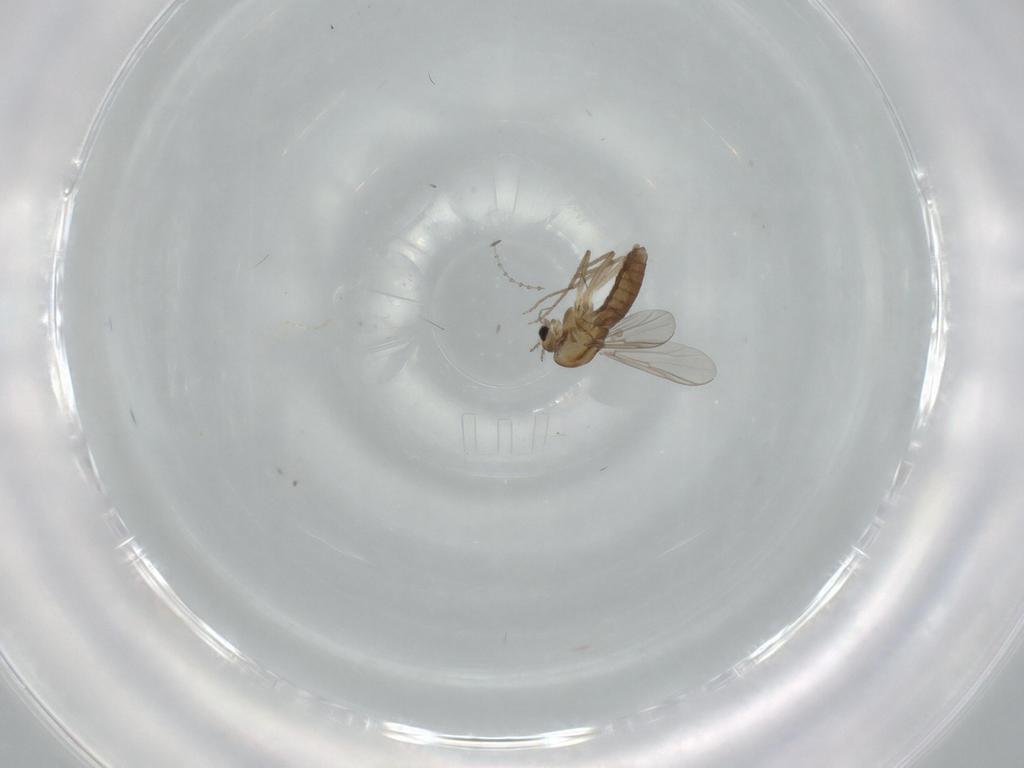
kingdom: Animalia
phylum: Arthropoda
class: Insecta
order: Diptera
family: Chironomidae
